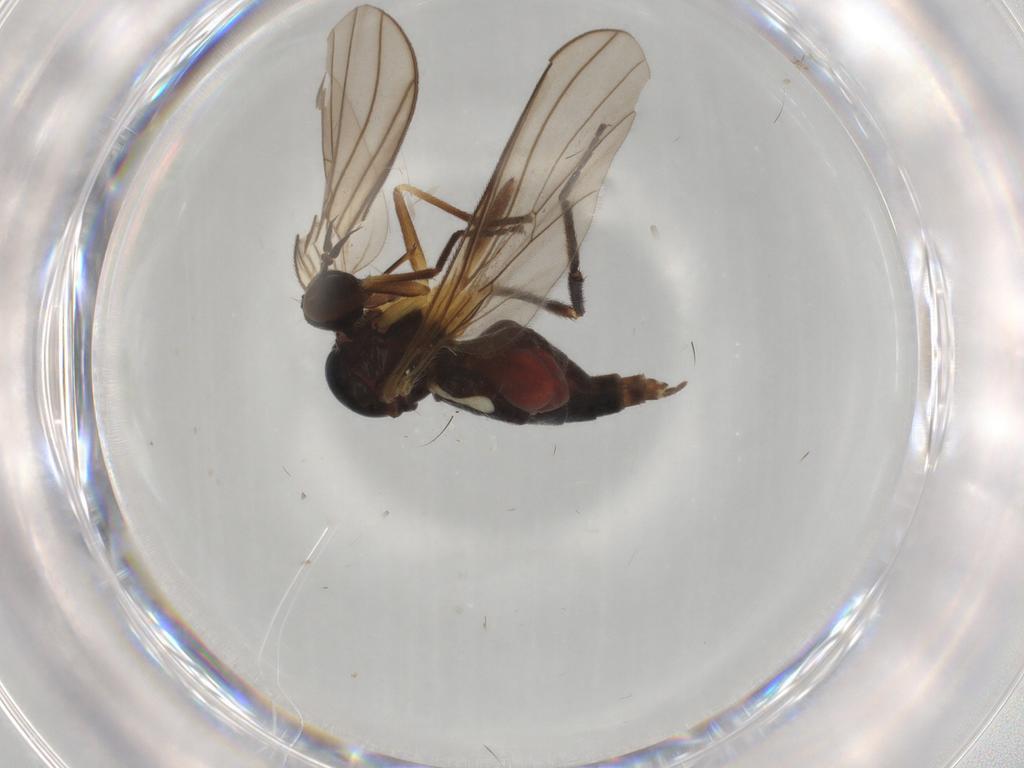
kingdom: Animalia
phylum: Arthropoda
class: Insecta
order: Diptera
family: Empididae
